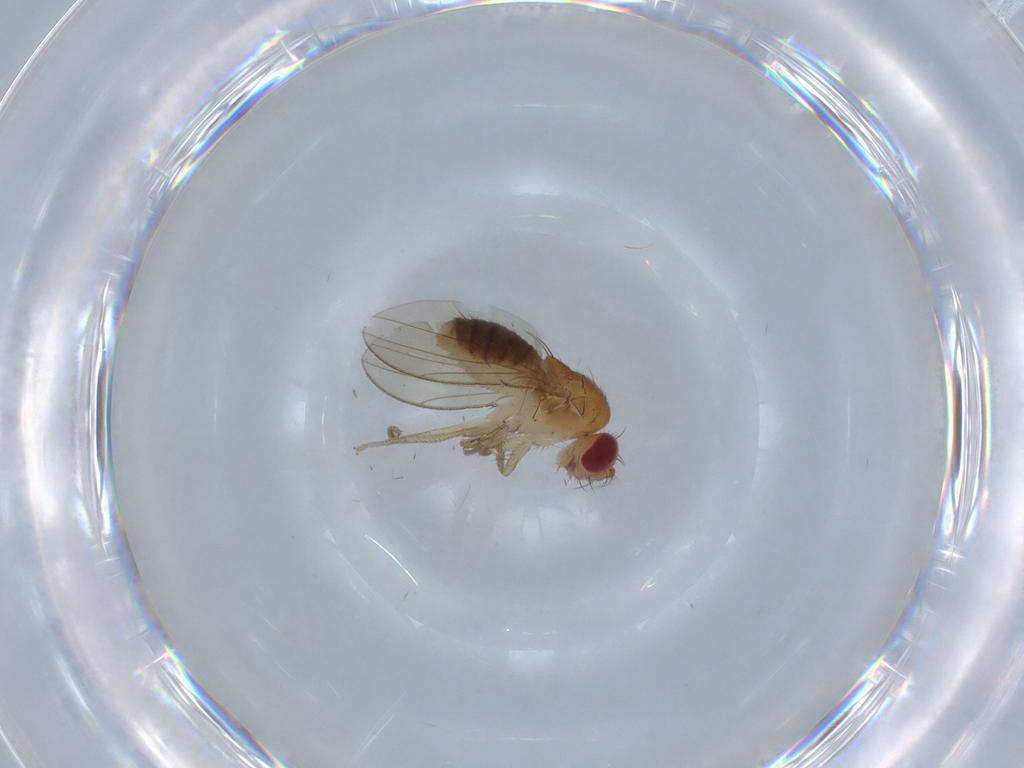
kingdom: Animalia
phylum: Arthropoda
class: Insecta
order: Diptera
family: Drosophilidae
